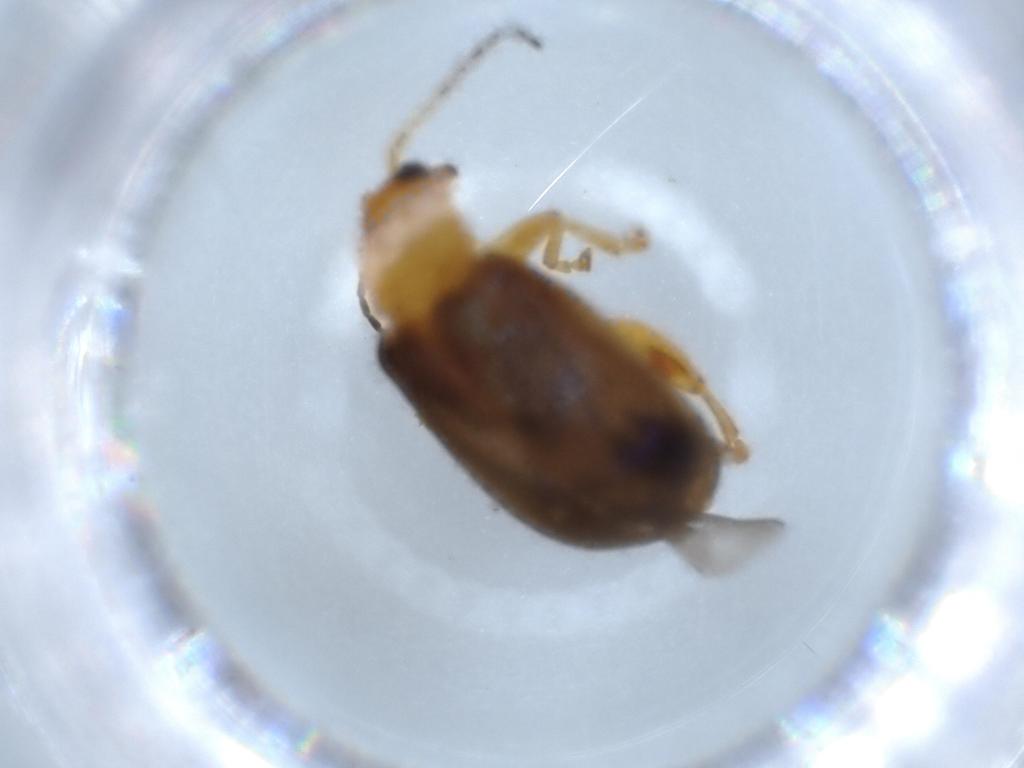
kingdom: Animalia
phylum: Arthropoda
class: Insecta
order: Coleoptera
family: Chrysomelidae
